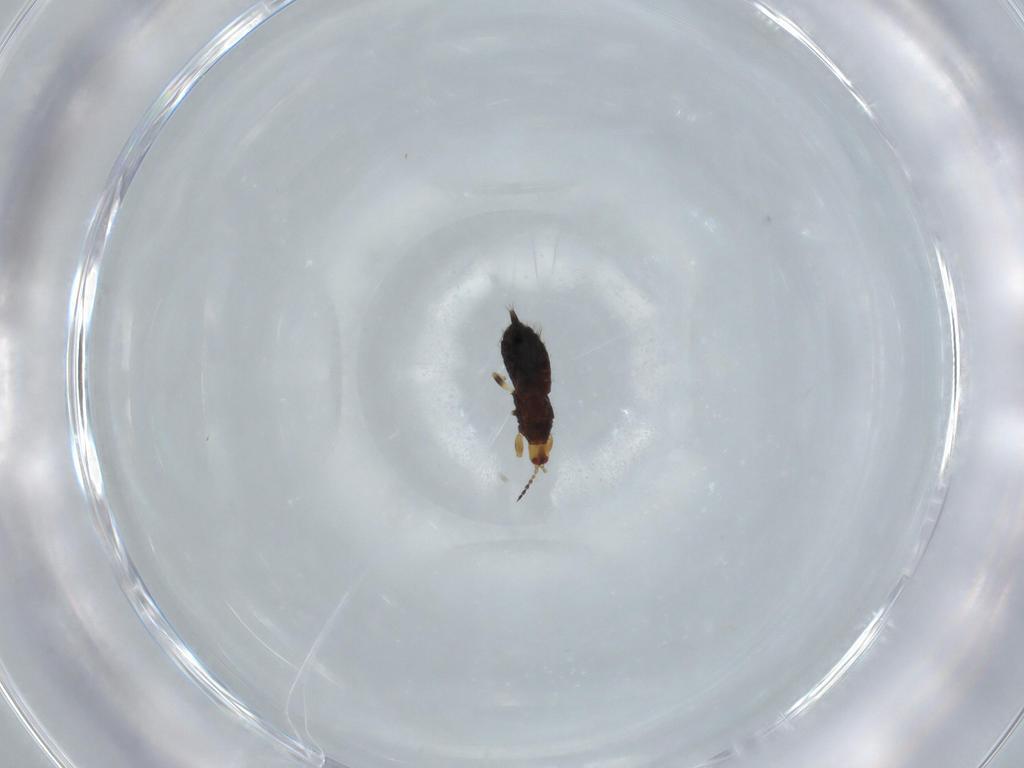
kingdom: Animalia
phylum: Arthropoda
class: Insecta
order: Thysanoptera
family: Phlaeothripidae
